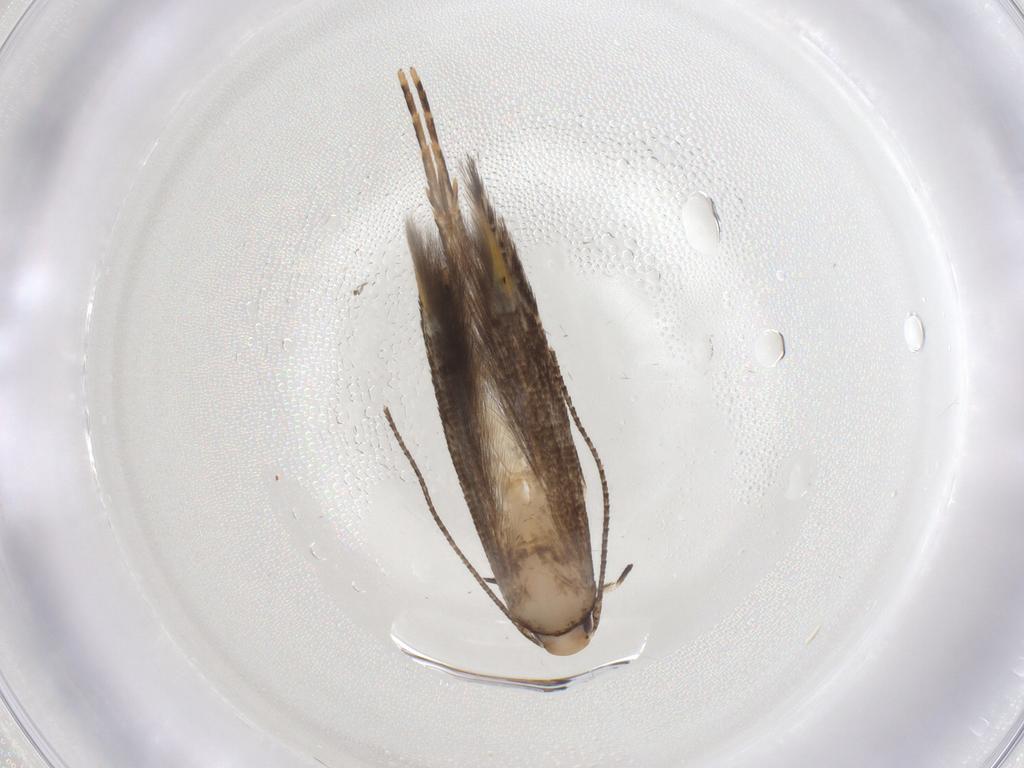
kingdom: Animalia
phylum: Arthropoda
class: Insecta
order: Lepidoptera
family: Cosmopterigidae
